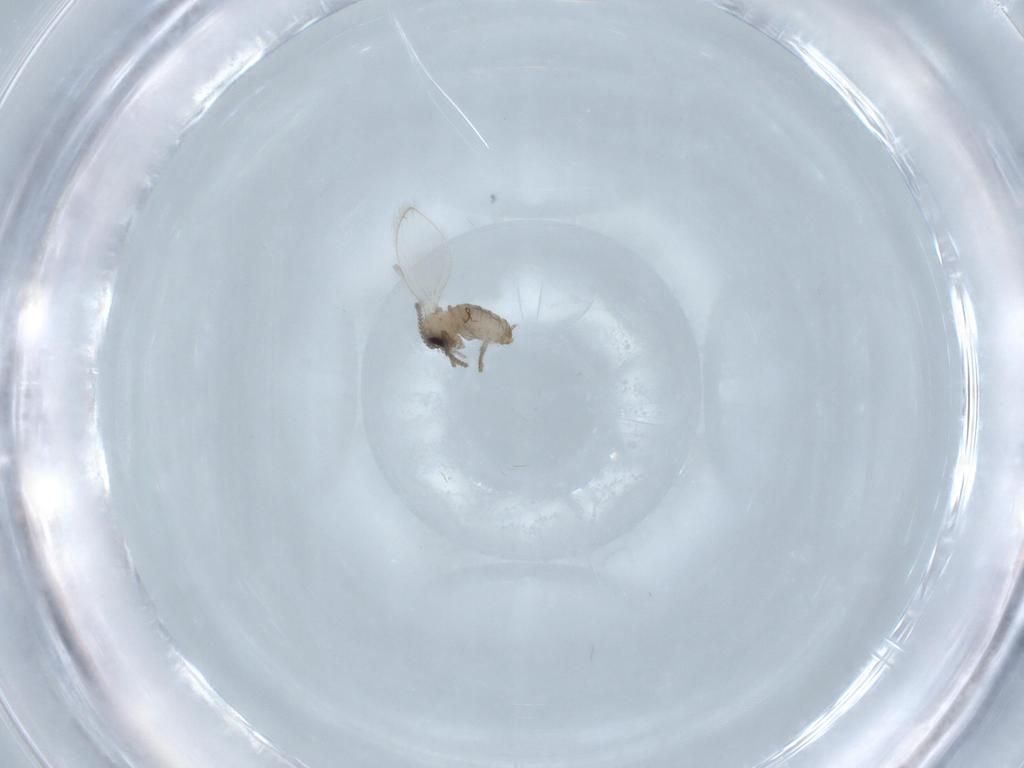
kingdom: Animalia
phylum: Arthropoda
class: Insecta
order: Diptera
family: Psychodidae
